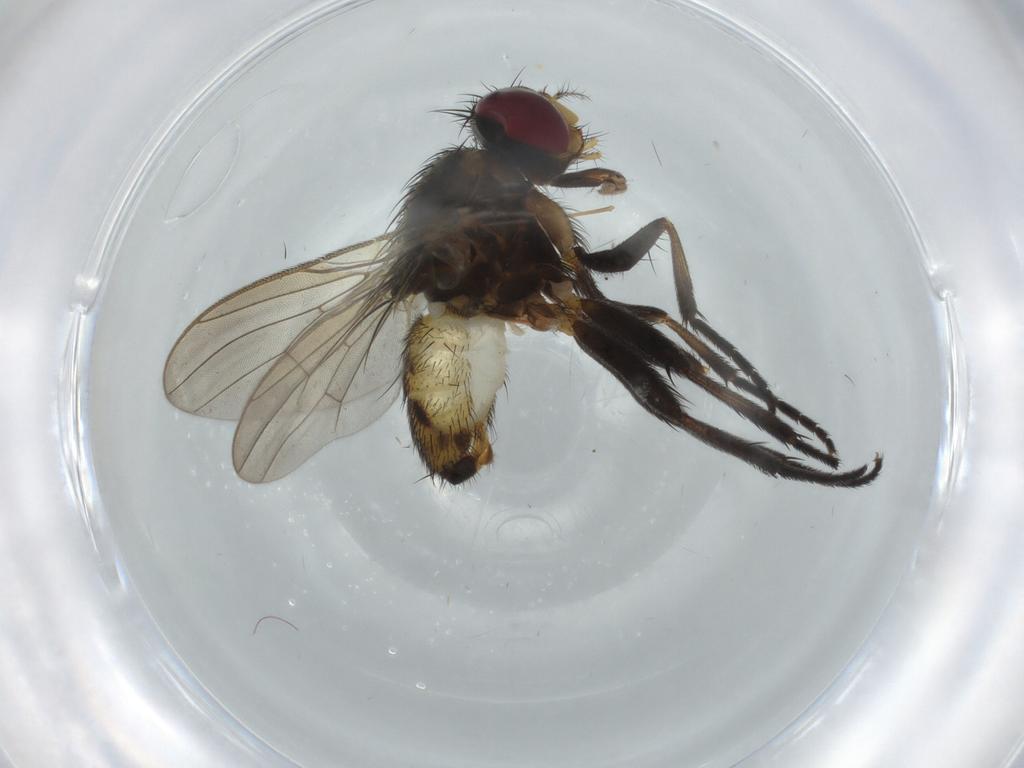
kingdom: Animalia
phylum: Arthropoda
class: Insecta
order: Diptera
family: Anthomyiidae
